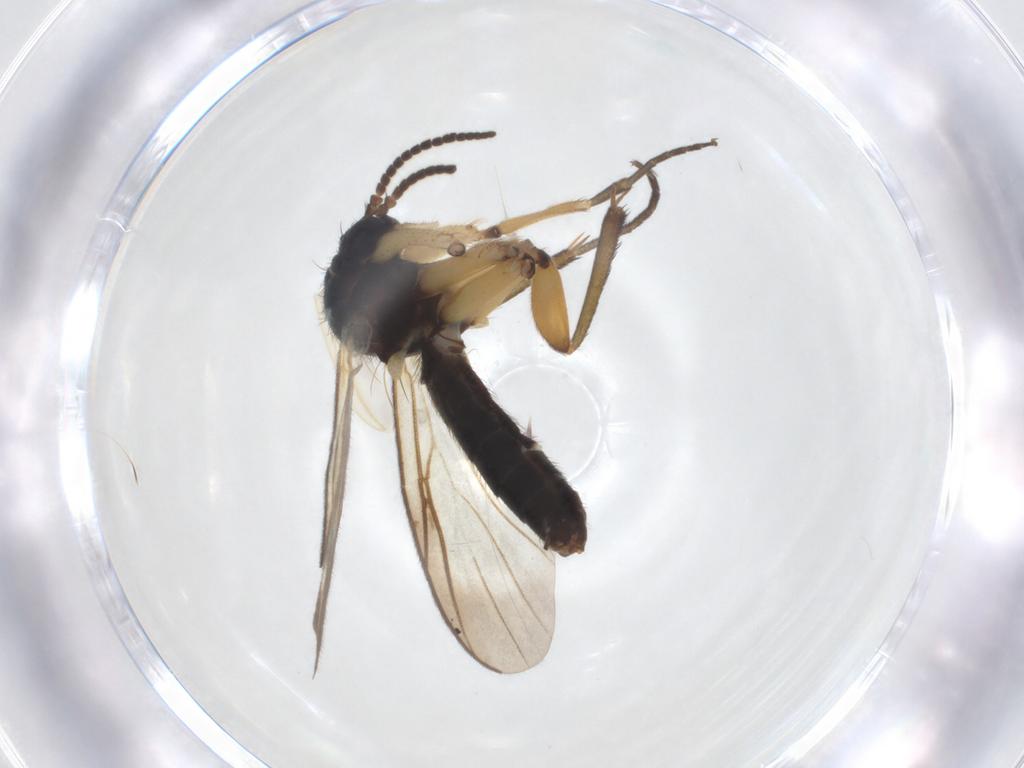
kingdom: Animalia
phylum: Arthropoda
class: Insecta
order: Diptera
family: Mycetophilidae
